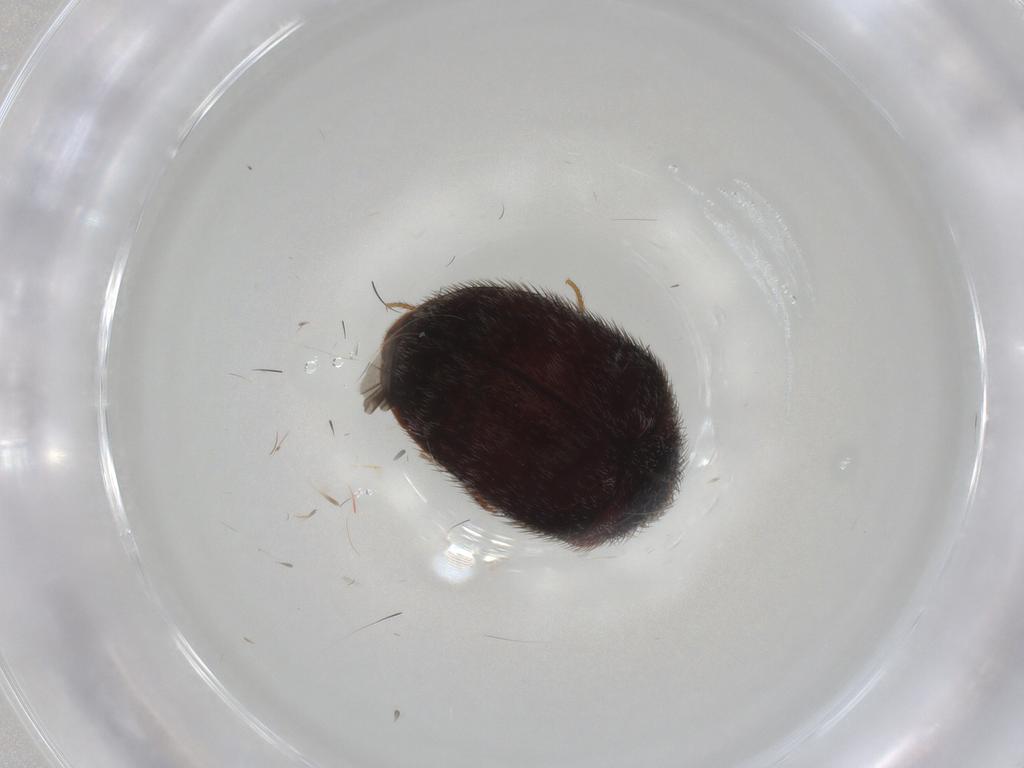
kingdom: Animalia
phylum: Arthropoda
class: Insecta
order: Coleoptera
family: Dermestidae
